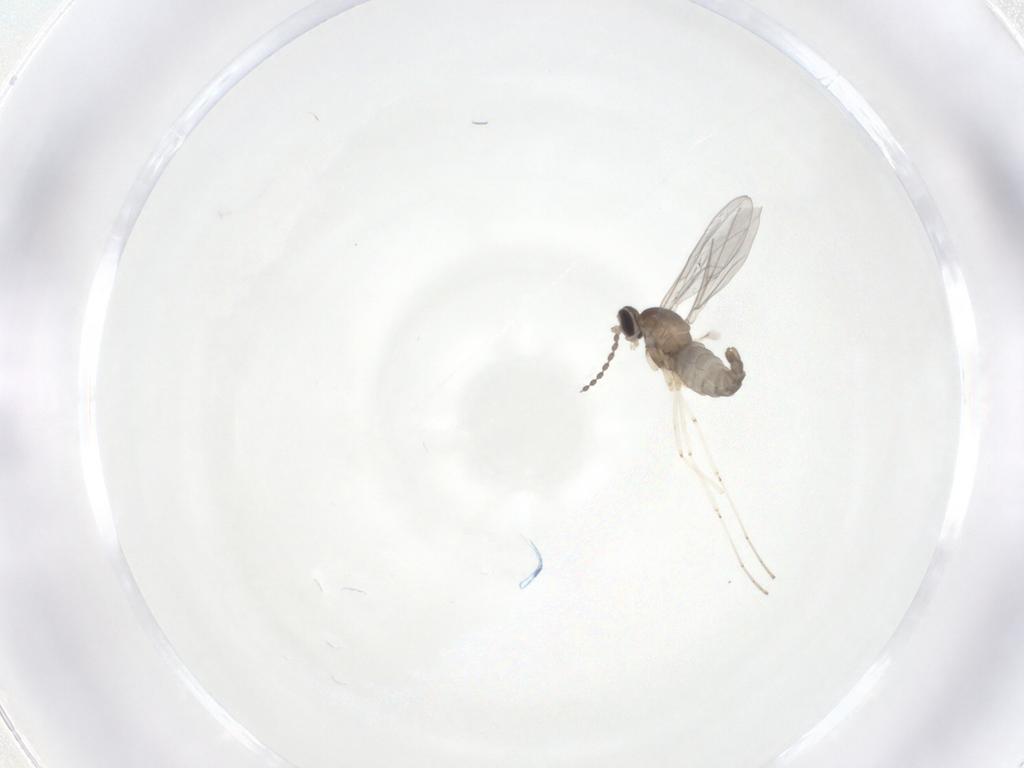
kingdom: Animalia
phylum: Arthropoda
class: Insecta
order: Diptera
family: Cecidomyiidae
